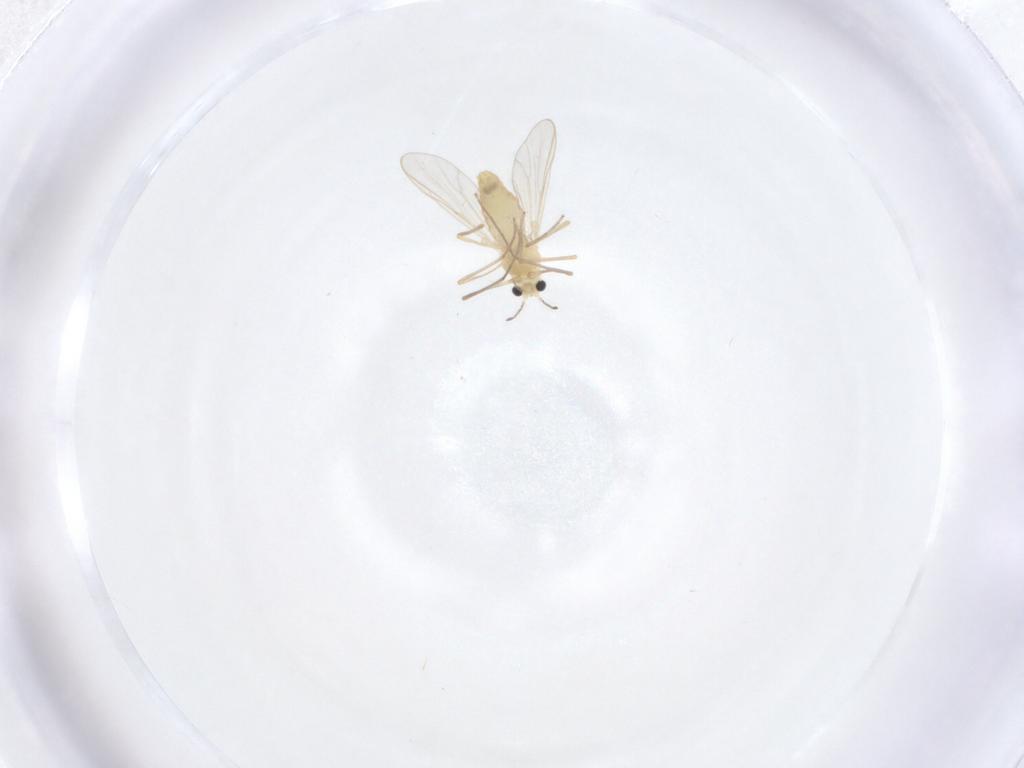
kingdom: Animalia
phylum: Arthropoda
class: Insecta
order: Diptera
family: Chironomidae
